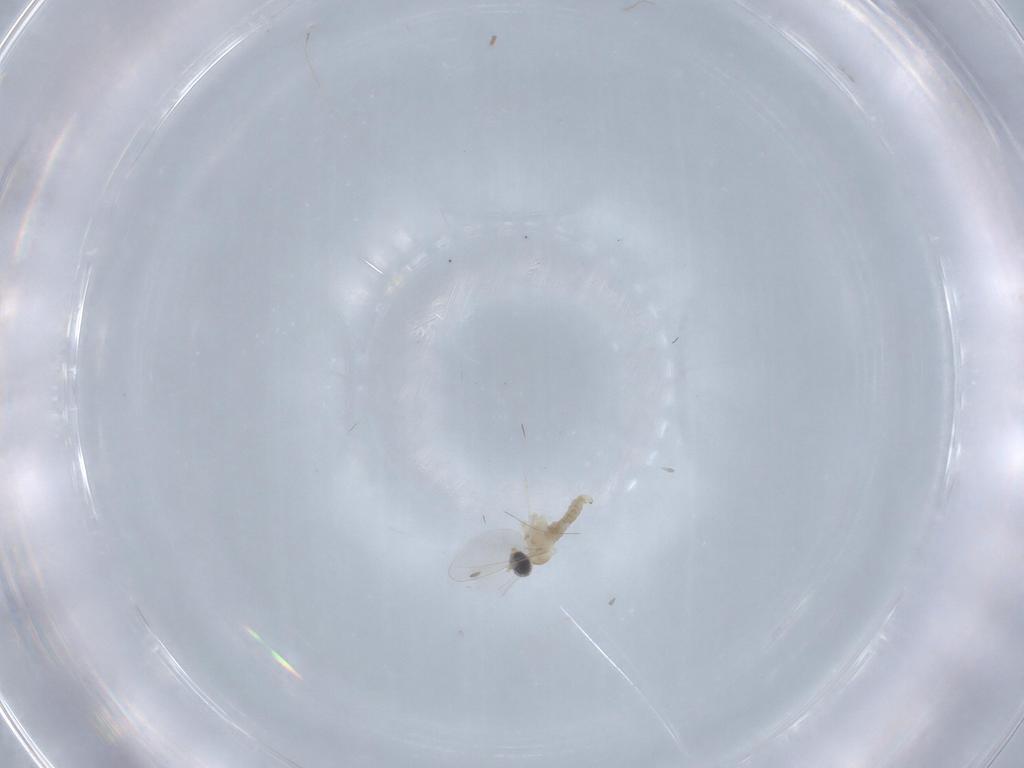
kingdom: Animalia
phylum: Arthropoda
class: Insecta
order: Diptera
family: Cecidomyiidae
